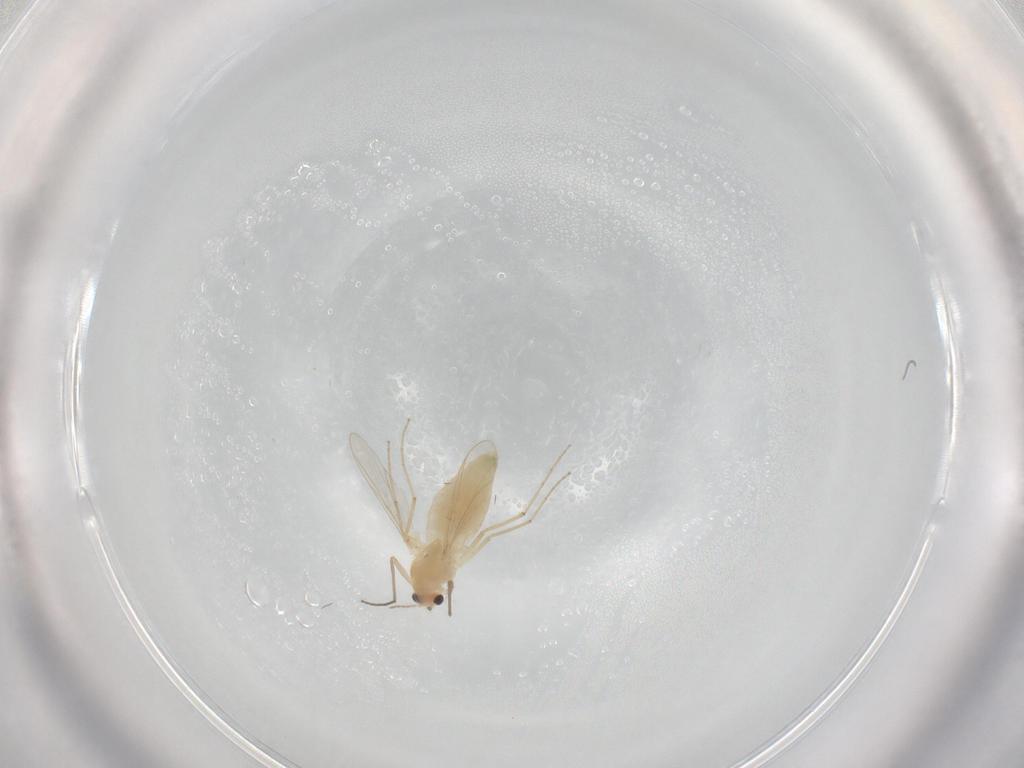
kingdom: Animalia
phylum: Arthropoda
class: Insecta
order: Diptera
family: Chironomidae
